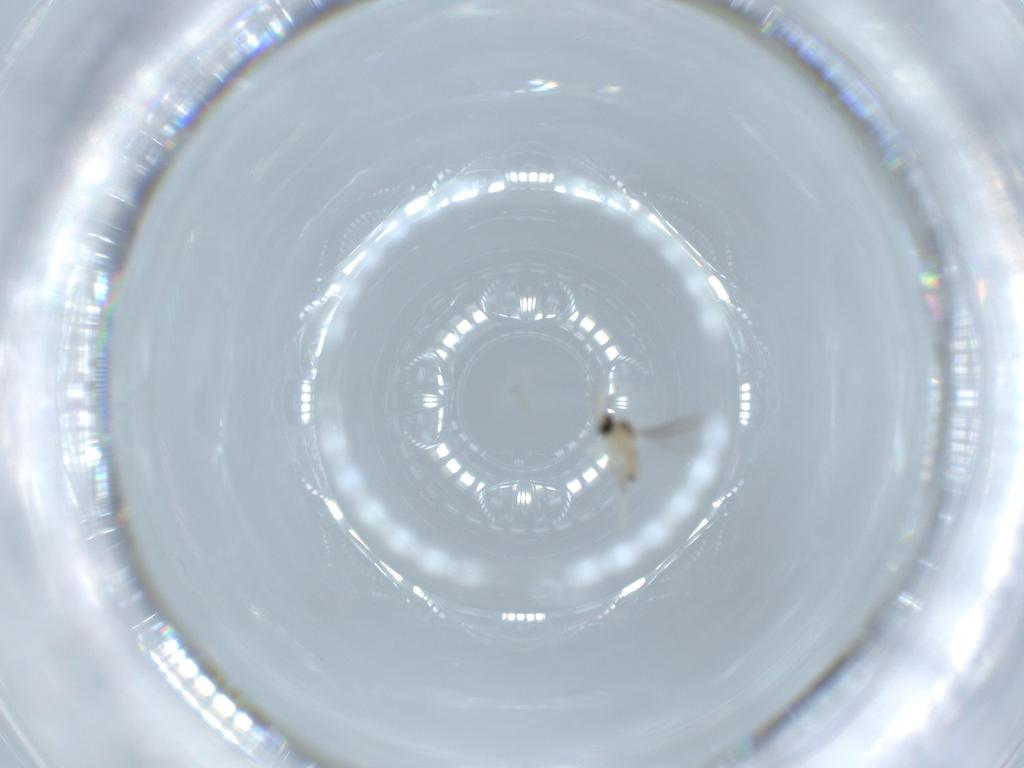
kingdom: Animalia
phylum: Arthropoda
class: Insecta
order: Diptera
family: Cecidomyiidae
